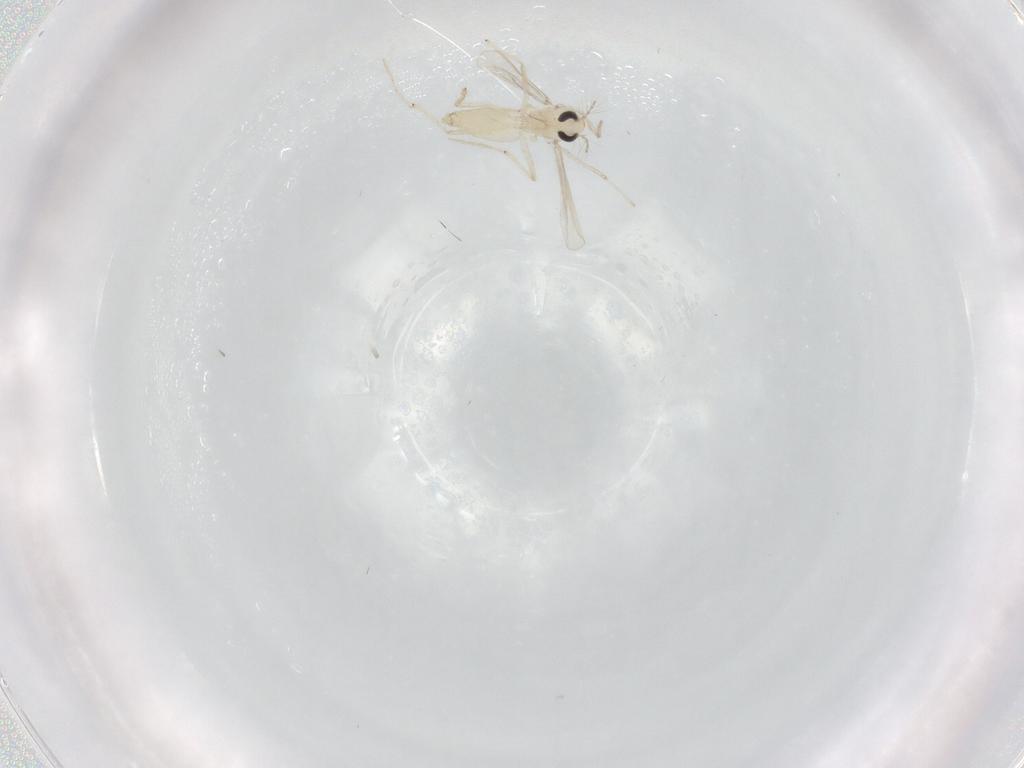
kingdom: Animalia
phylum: Arthropoda
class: Insecta
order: Diptera
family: Chironomidae
